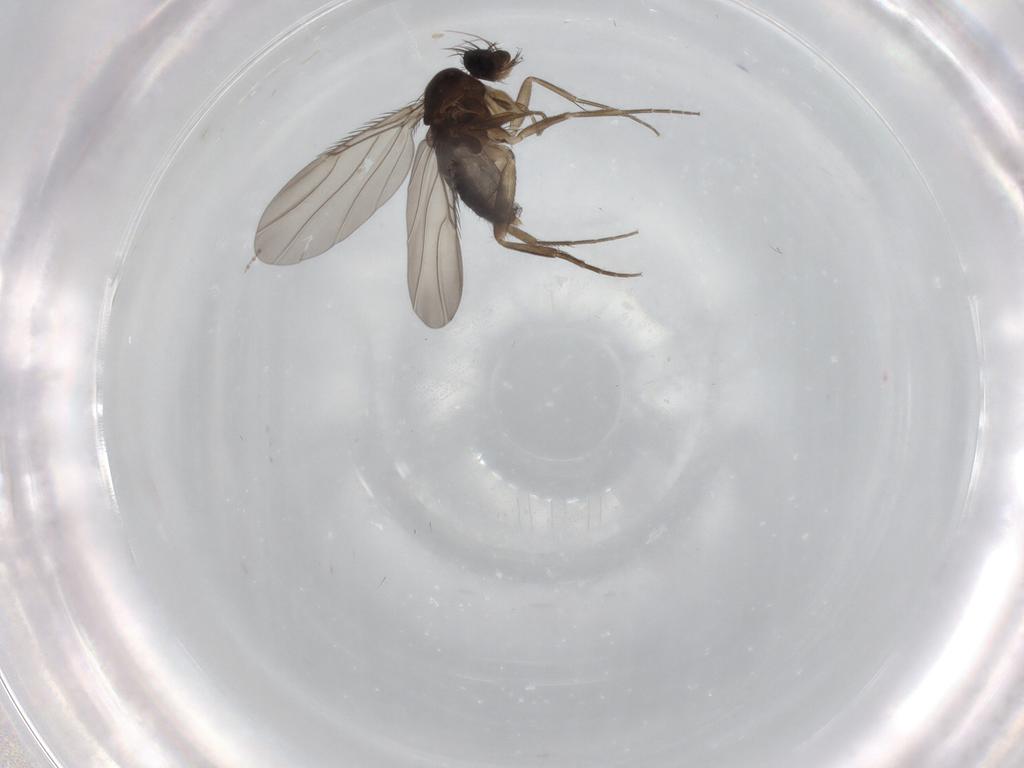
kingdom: Animalia
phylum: Arthropoda
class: Insecta
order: Diptera
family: Phoridae
